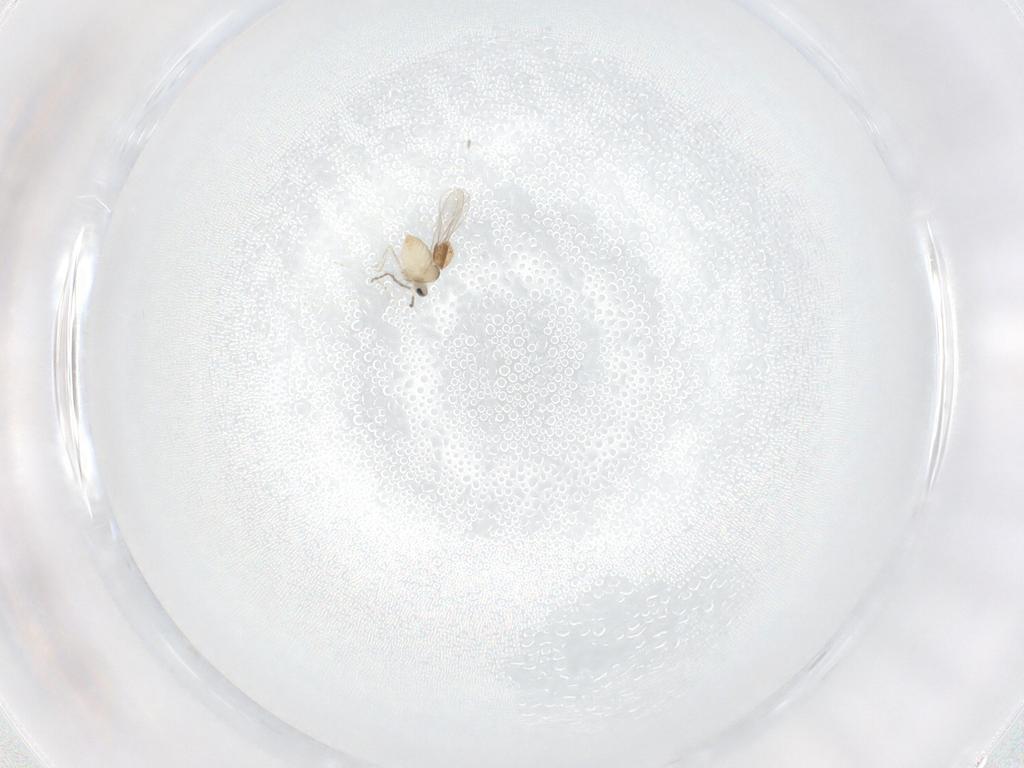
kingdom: Animalia
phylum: Arthropoda
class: Insecta
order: Diptera
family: Cecidomyiidae
